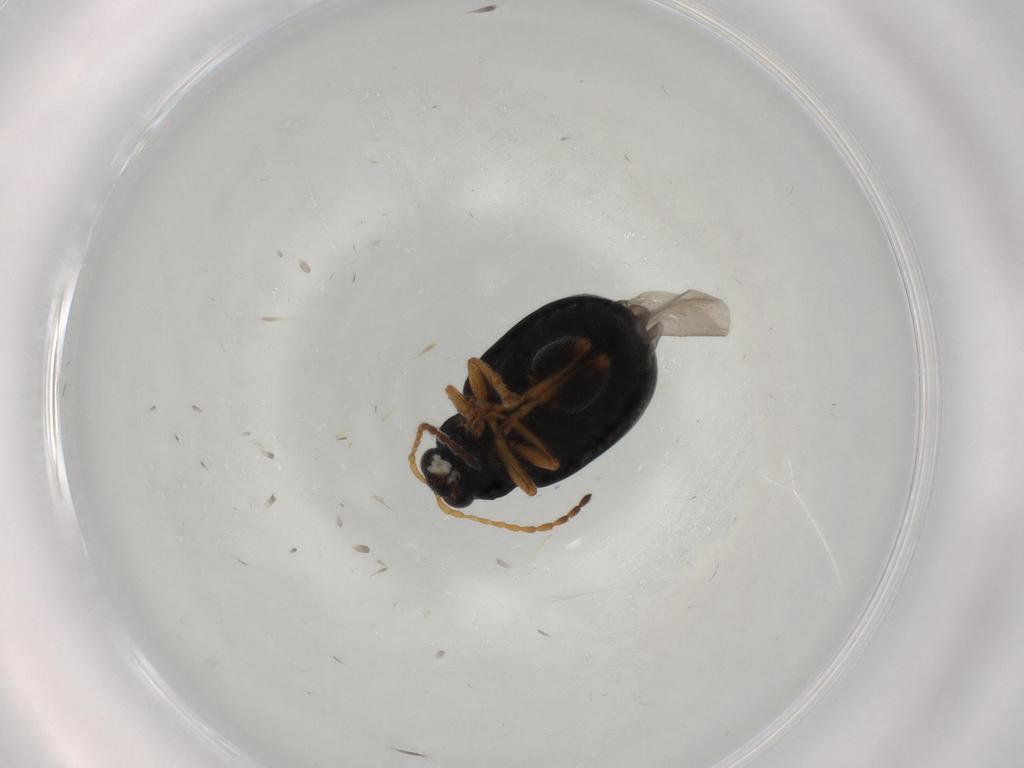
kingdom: Animalia
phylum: Arthropoda
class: Insecta
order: Coleoptera
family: Chrysomelidae
